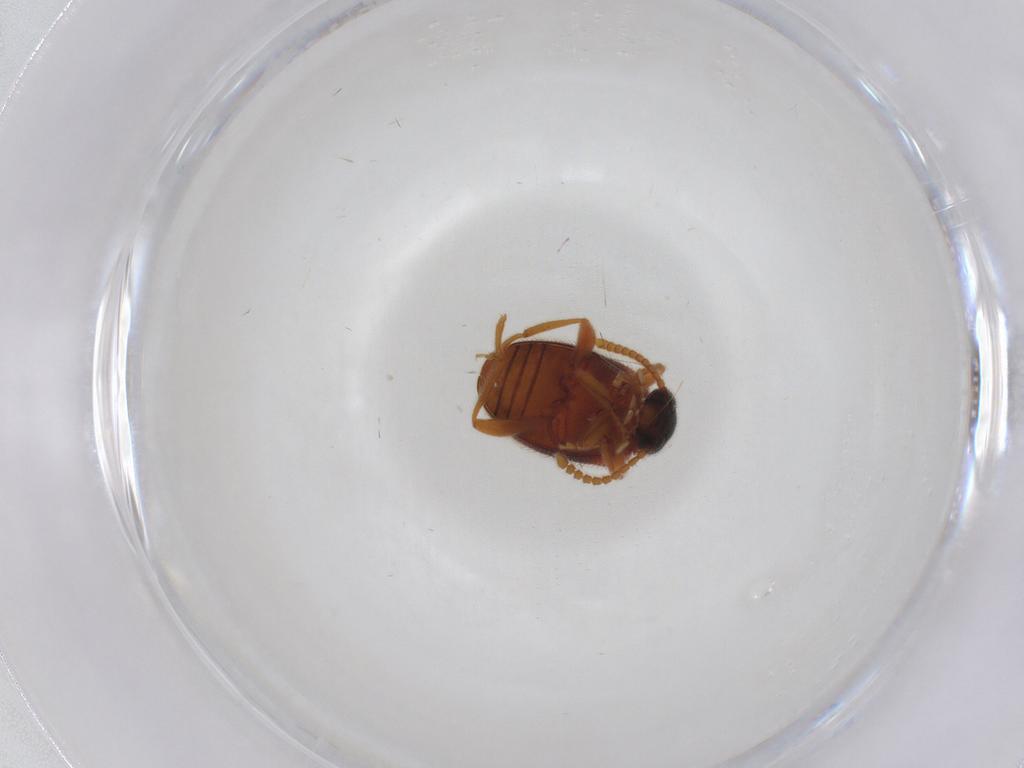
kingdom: Animalia
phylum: Arthropoda
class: Insecta
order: Coleoptera
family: Aderidae
